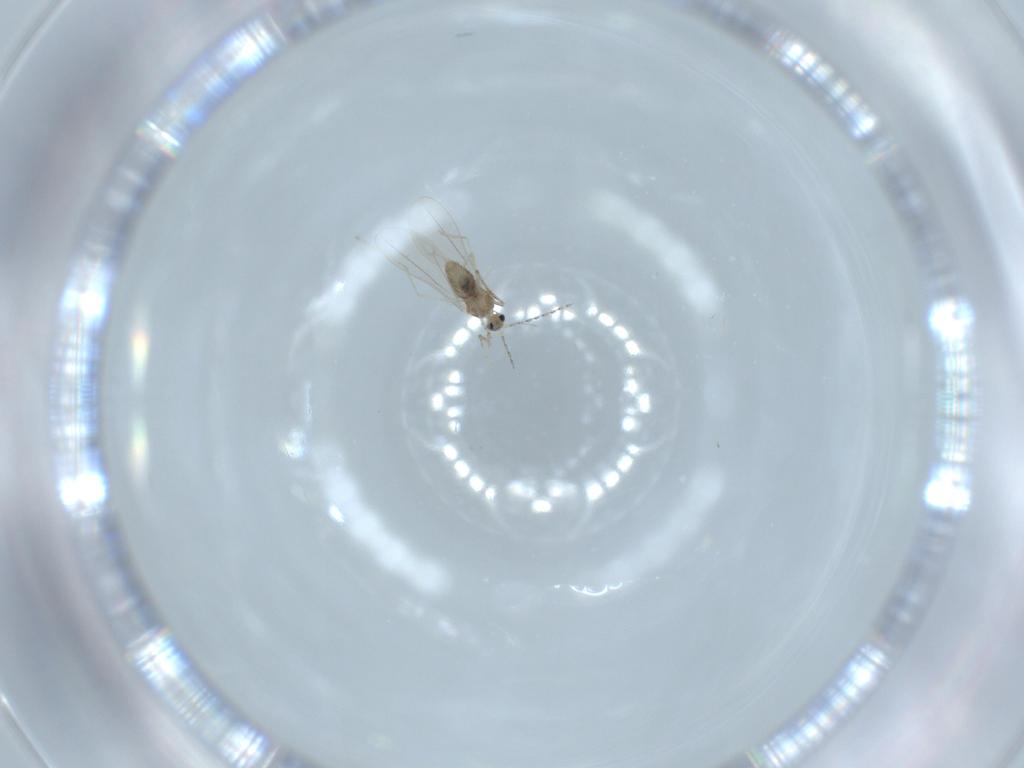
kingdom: Animalia
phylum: Arthropoda
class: Insecta
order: Diptera
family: Cecidomyiidae
